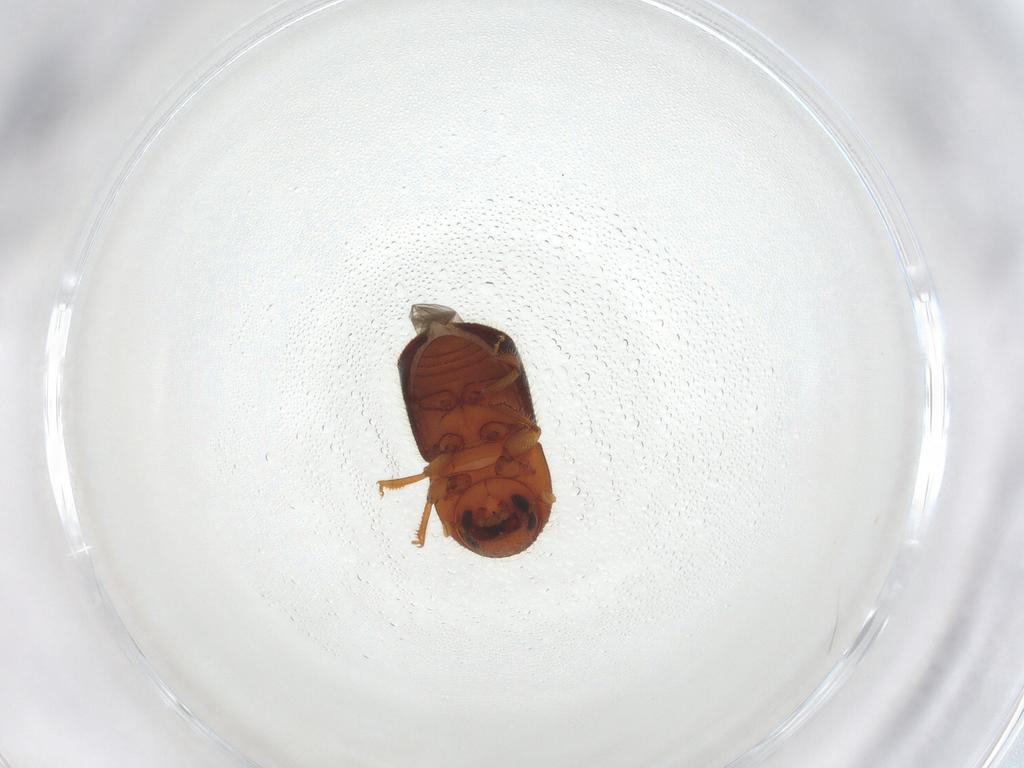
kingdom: Animalia
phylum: Arthropoda
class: Insecta
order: Coleoptera
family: Curculionidae
